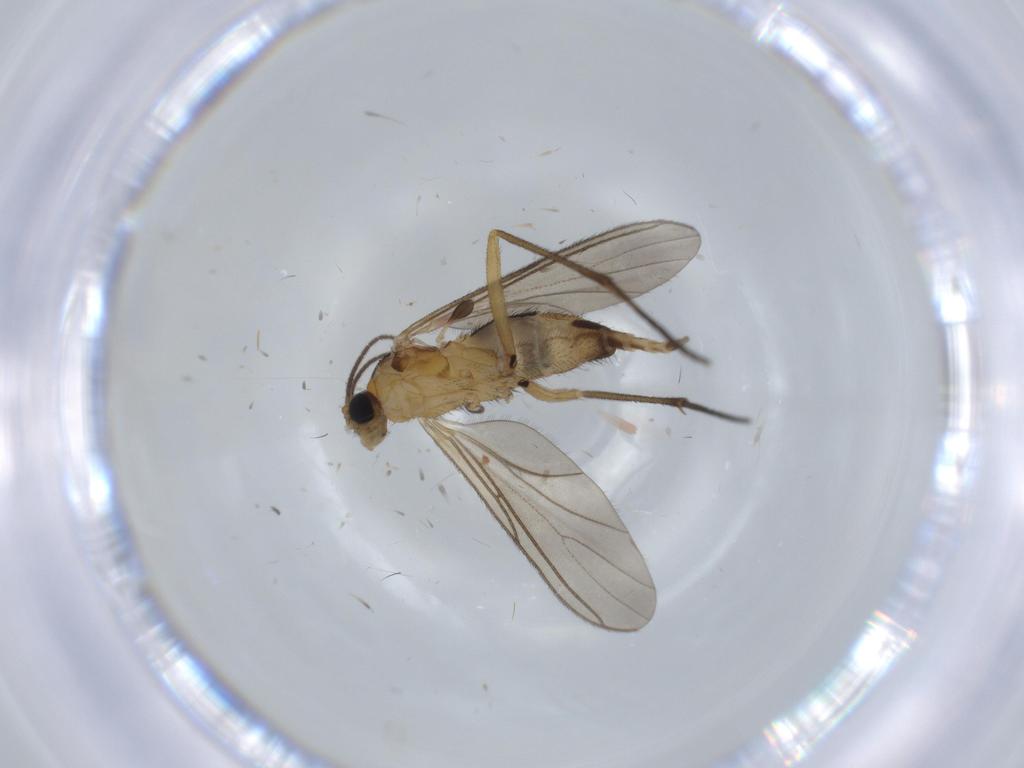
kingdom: Animalia
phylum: Arthropoda
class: Insecta
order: Diptera
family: Sciaridae
